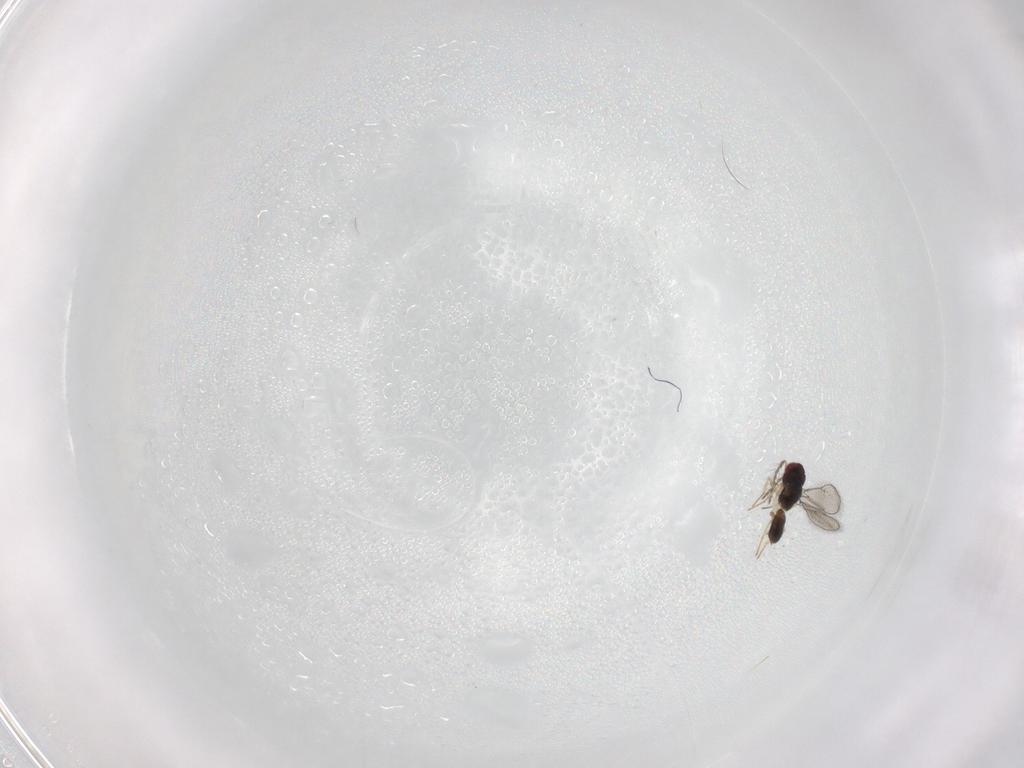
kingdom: Animalia
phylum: Arthropoda
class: Insecta
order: Hymenoptera
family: Eulophidae
